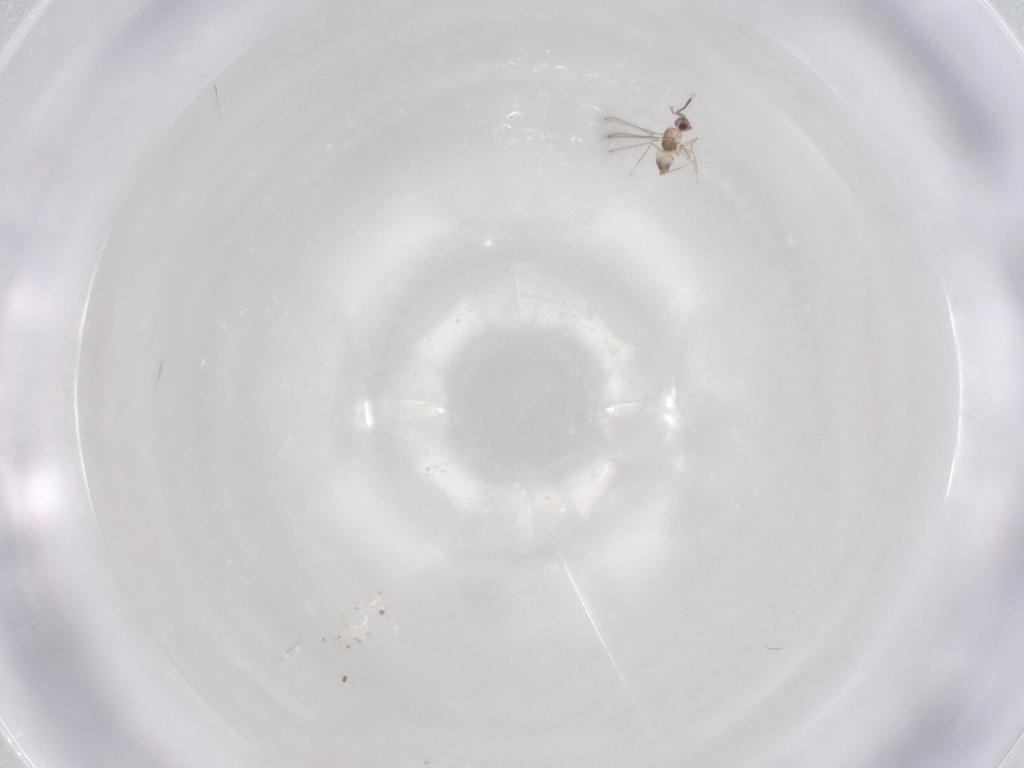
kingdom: Animalia
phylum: Arthropoda
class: Insecta
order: Hymenoptera
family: Mymaridae
